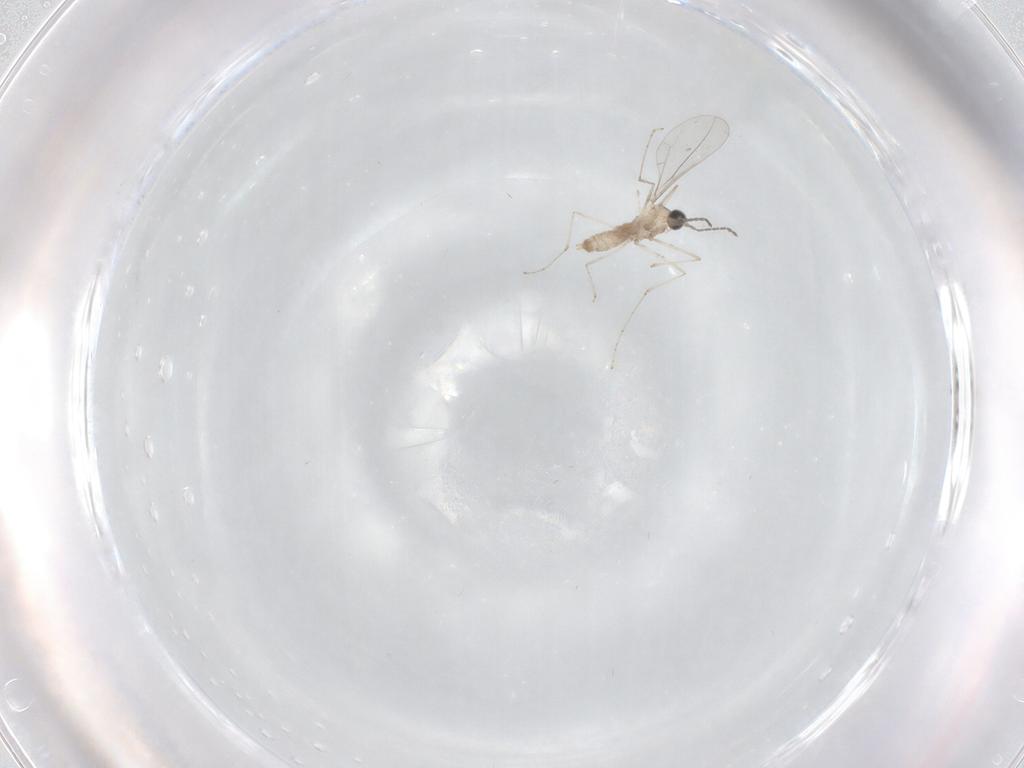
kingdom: Animalia
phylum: Arthropoda
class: Insecta
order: Diptera
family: Cecidomyiidae
